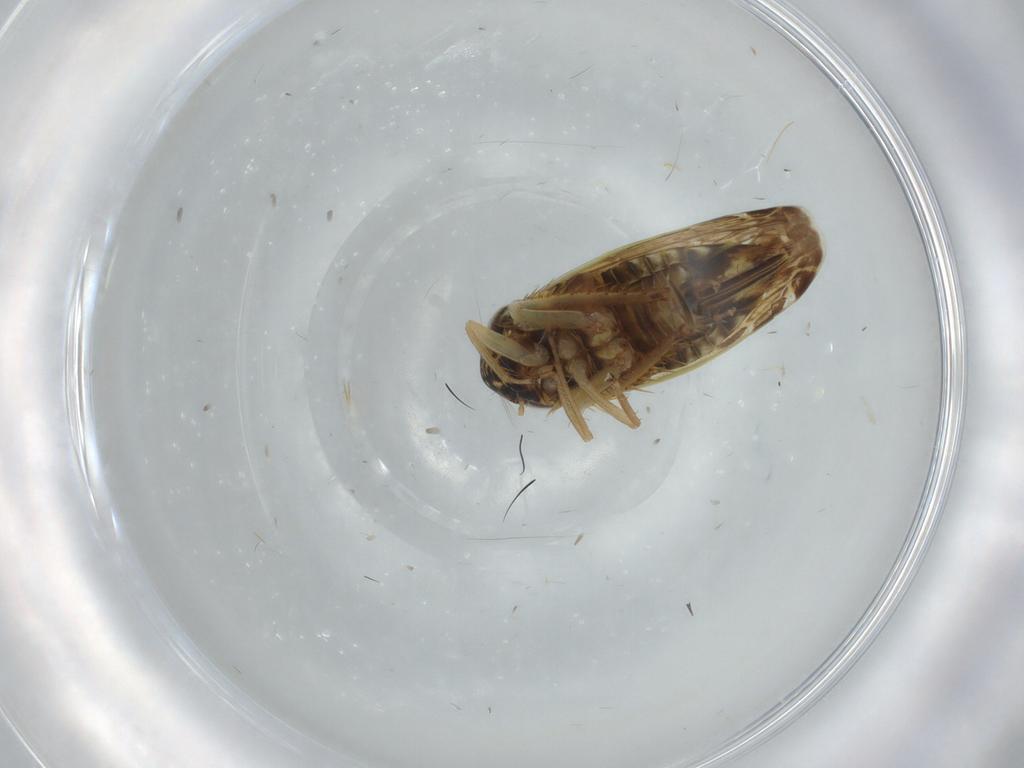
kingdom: Animalia
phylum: Arthropoda
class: Insecta
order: Hemiptera
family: Cicadellidae
